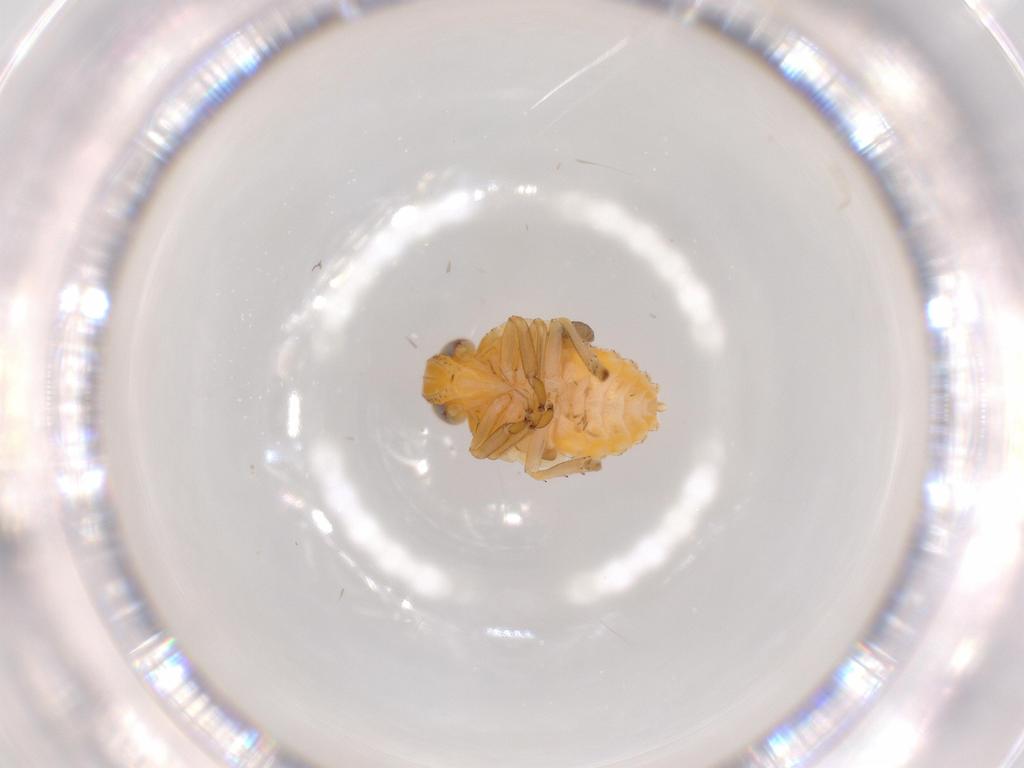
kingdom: Animalia
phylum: Arthropoda
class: Insecta
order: Hemiptera
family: Issidae
